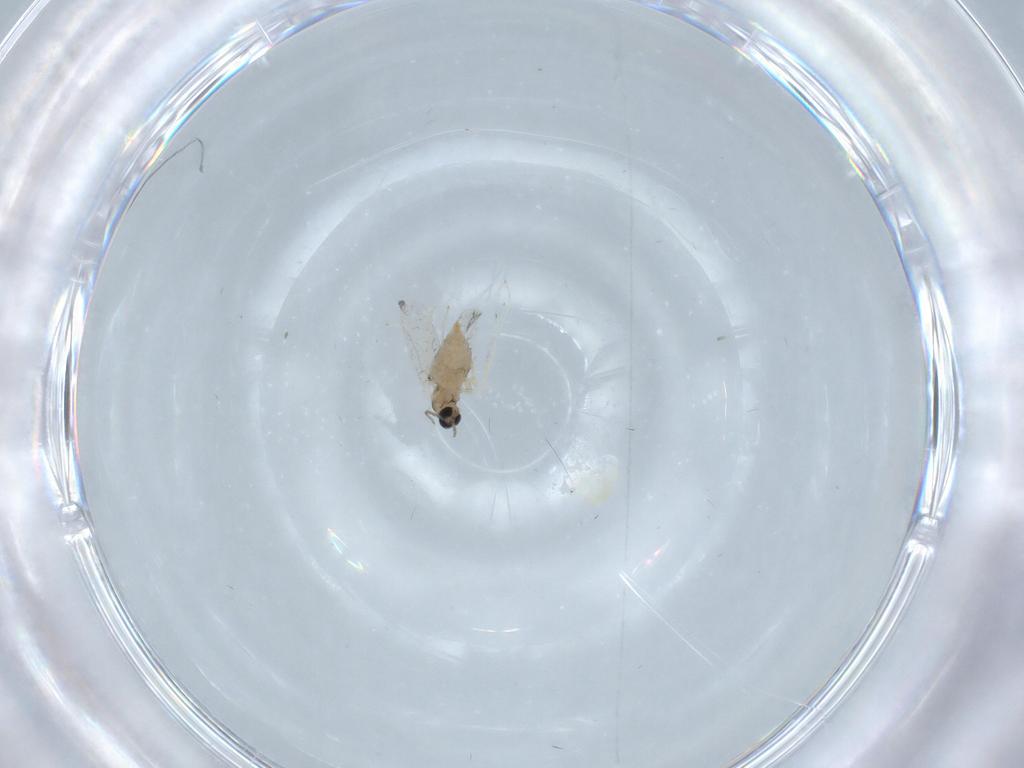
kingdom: Animalia
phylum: Arthropoda
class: Insecta
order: Diptera
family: Cecidomyiidae
